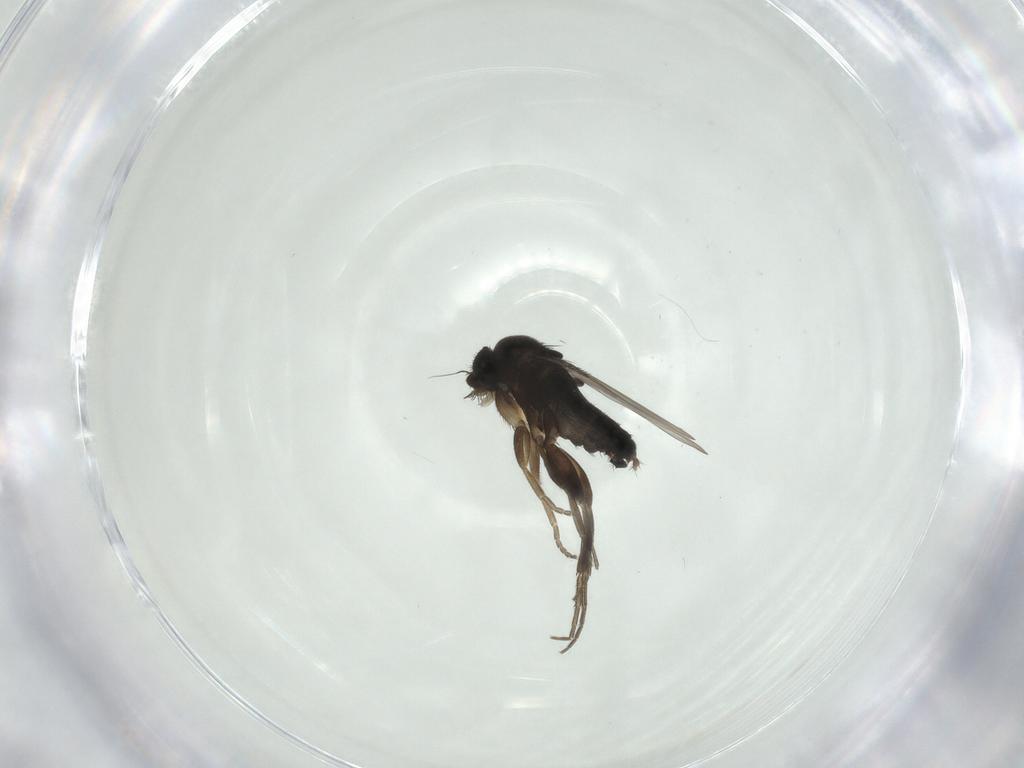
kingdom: Animalia
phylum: Arthropoda
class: Insecta
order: Diptera
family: Phoridae
